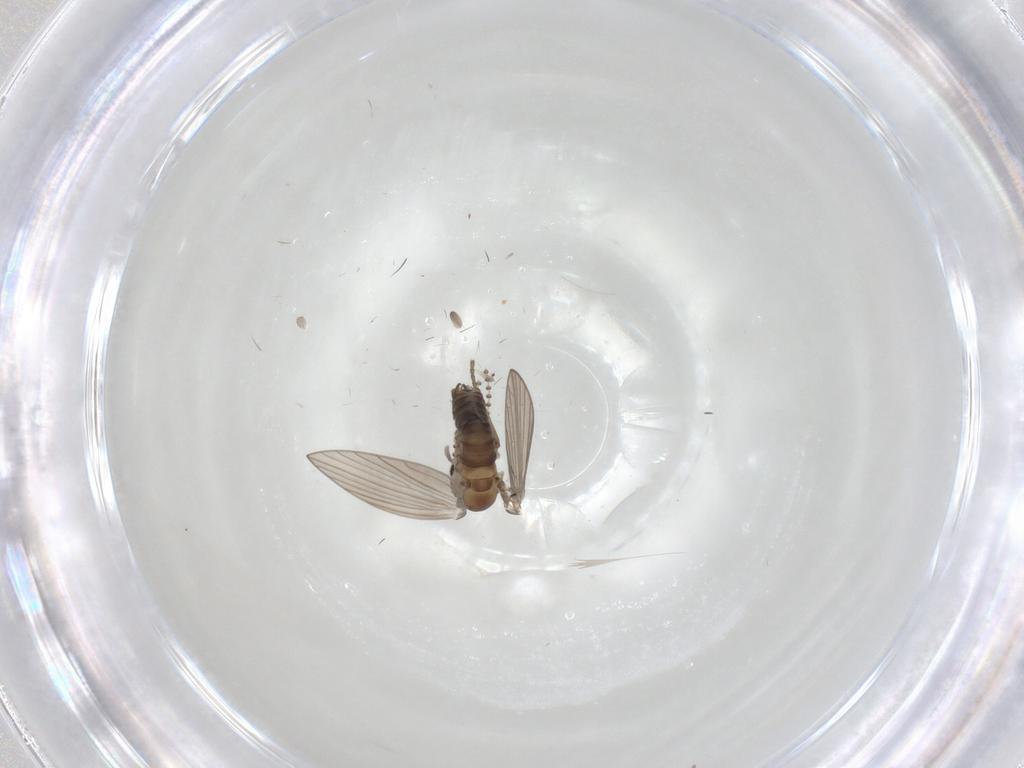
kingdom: Animalia
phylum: Arthropoda
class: Insecta
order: Diptera
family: Psychodidae
